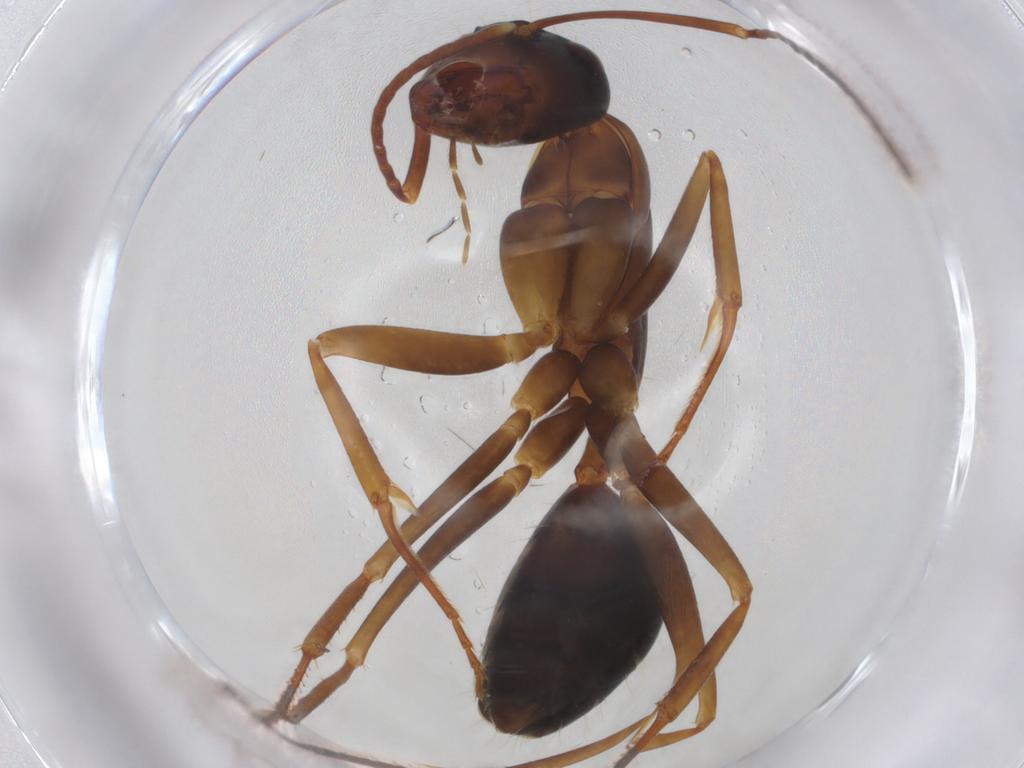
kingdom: Animalia
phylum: Arthropoda
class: Insecta
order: Hymenoptera
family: Formicidae
